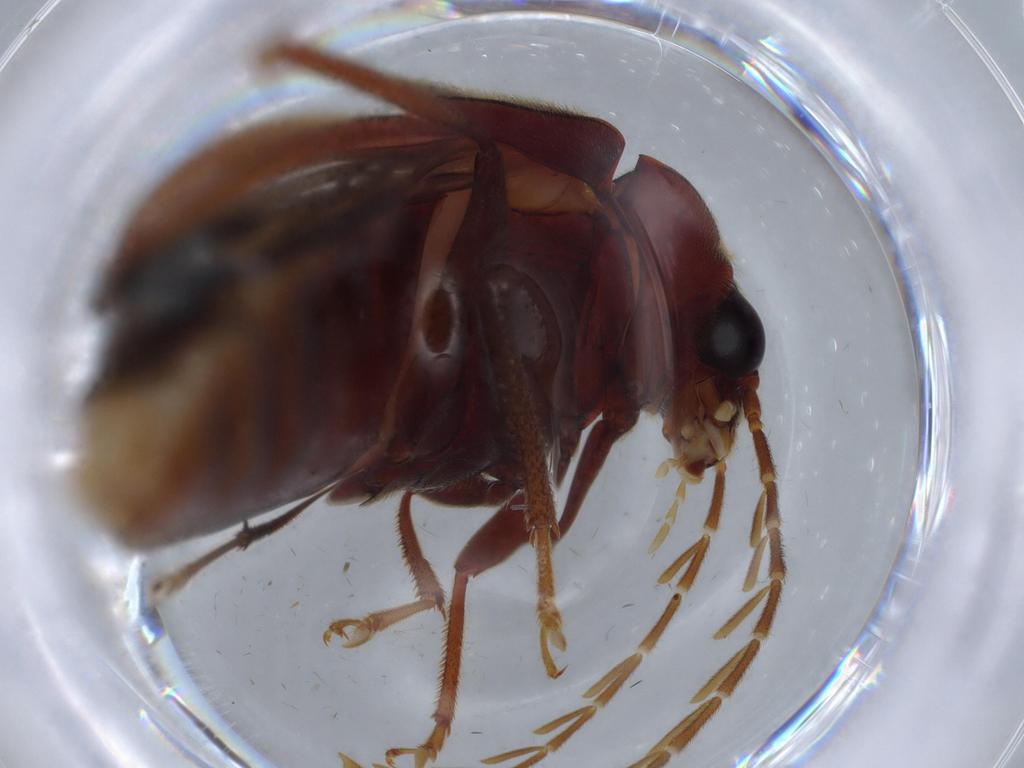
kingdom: Animalia
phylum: Arthropoda
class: Insecta
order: Coleoptera
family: Ptilodactylidae
